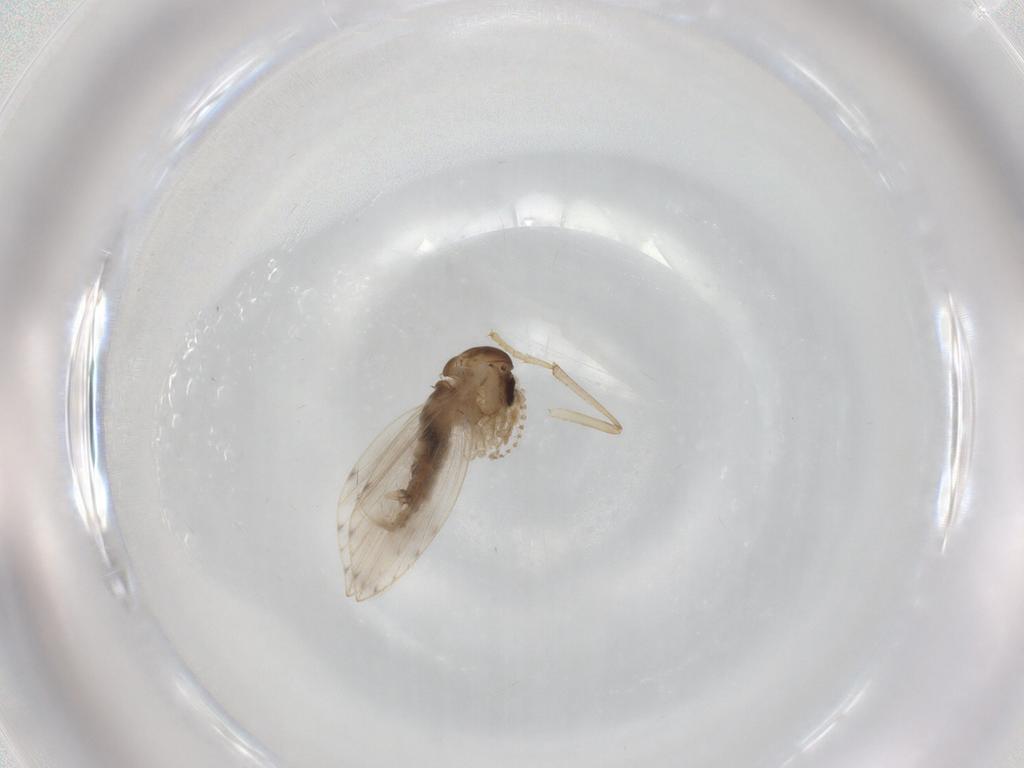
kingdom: Animalia
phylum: Arthropoda
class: Insecta
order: Diptera
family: Muscidae
